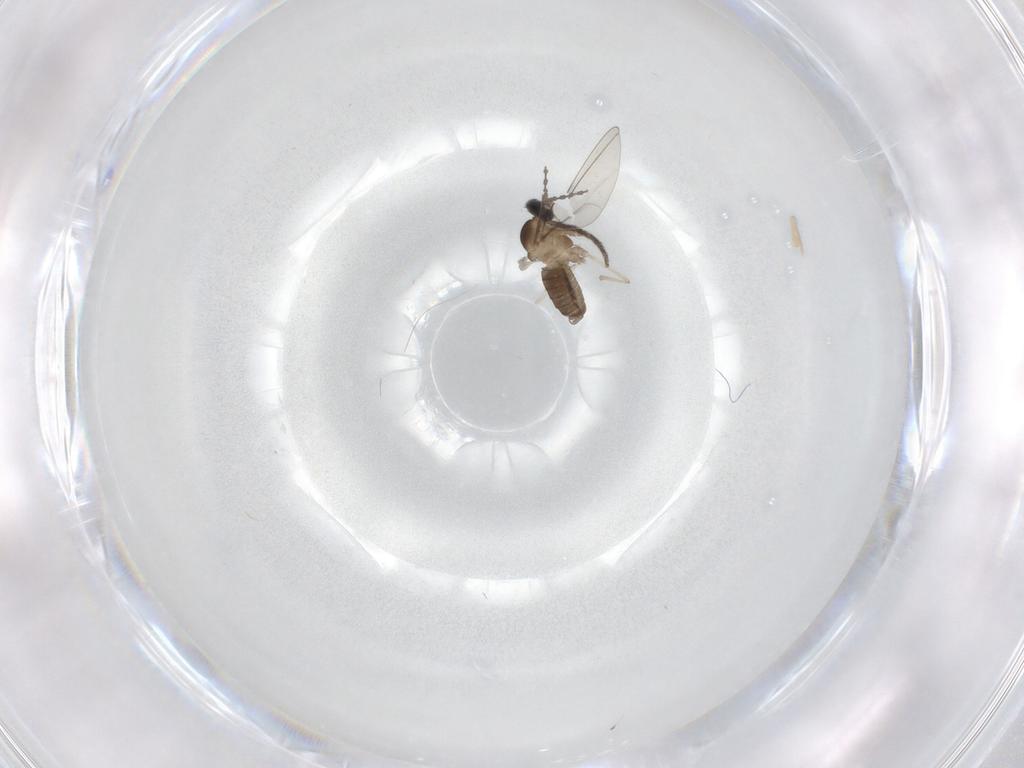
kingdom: Animalia
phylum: Arthropoda
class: Insecta
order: Diptera
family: Cecidomyiidae
